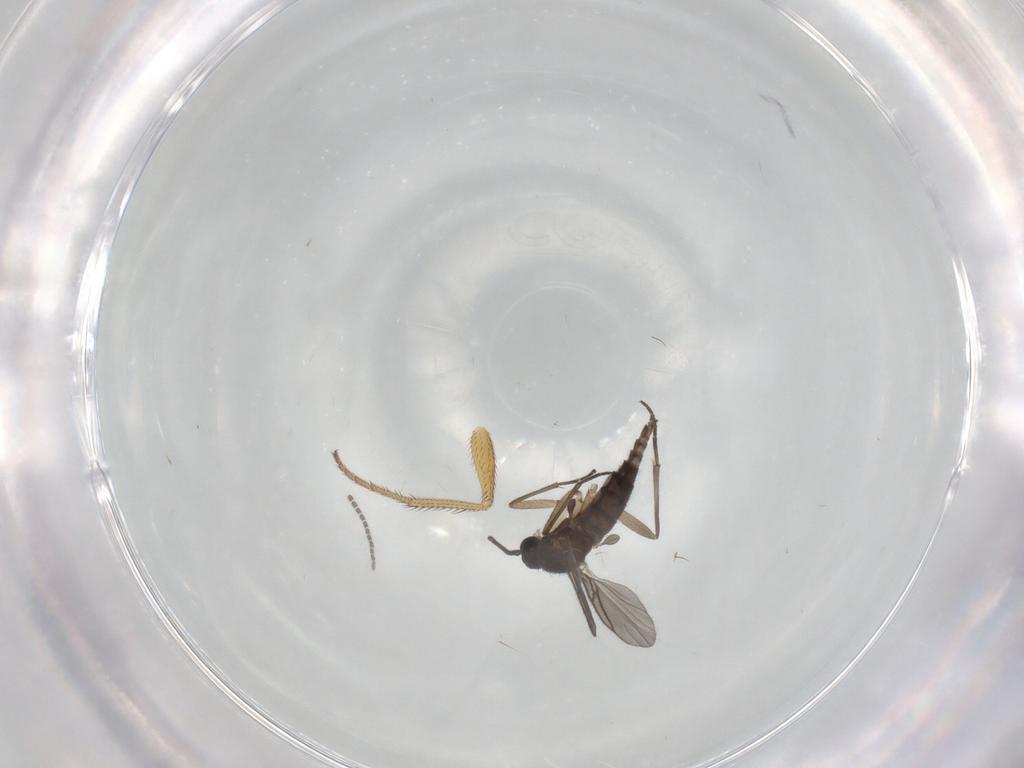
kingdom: Animalia
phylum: Arthropoda
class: Insecta
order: Diptera
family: Sciaridae
